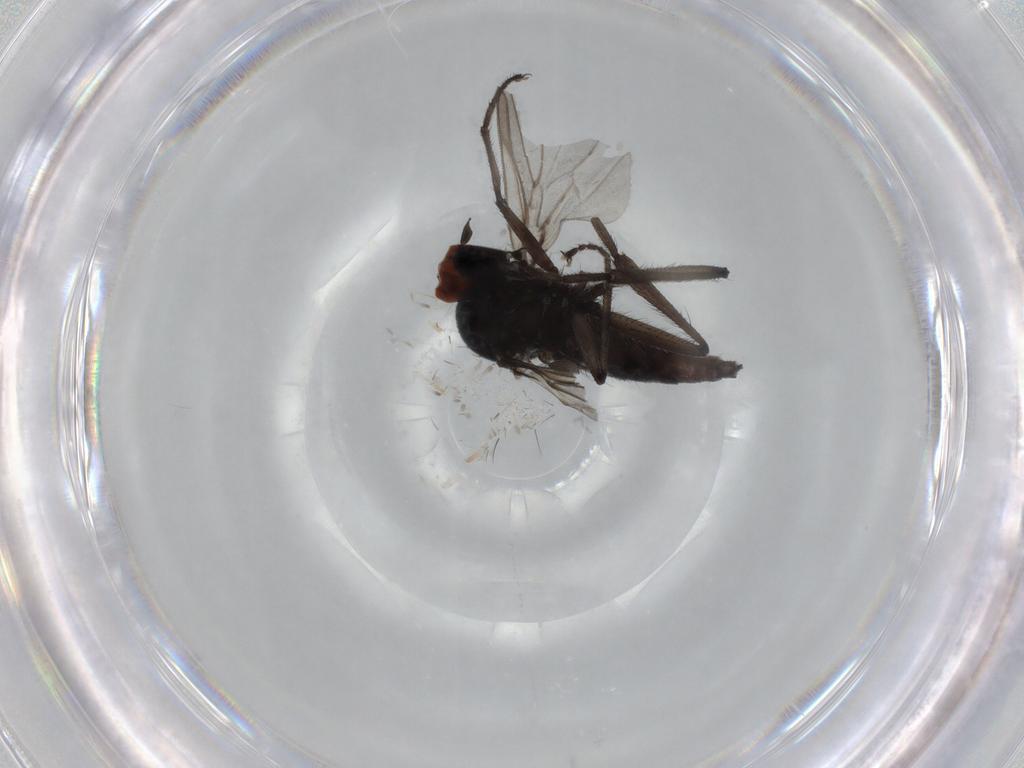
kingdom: Animalia
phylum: Arthropoda
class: Insecta
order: Diptera
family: Hybotidae
